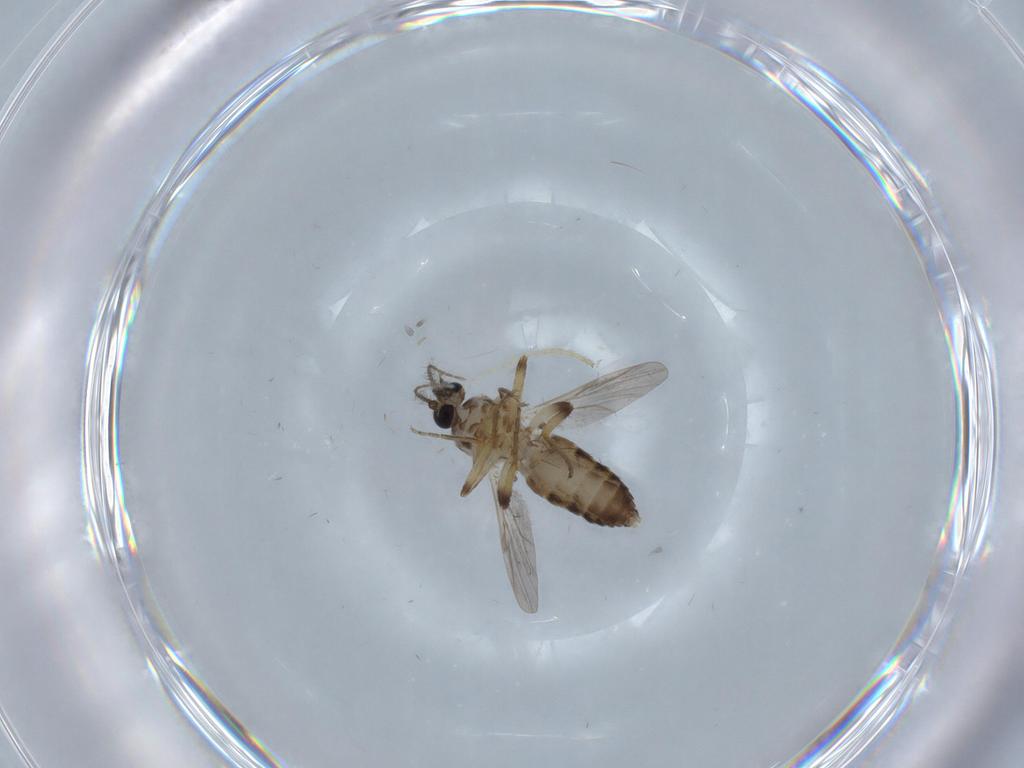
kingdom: Animalia
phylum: Arthropoda
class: Insecta
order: Diptera
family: Ceratopogonidae
